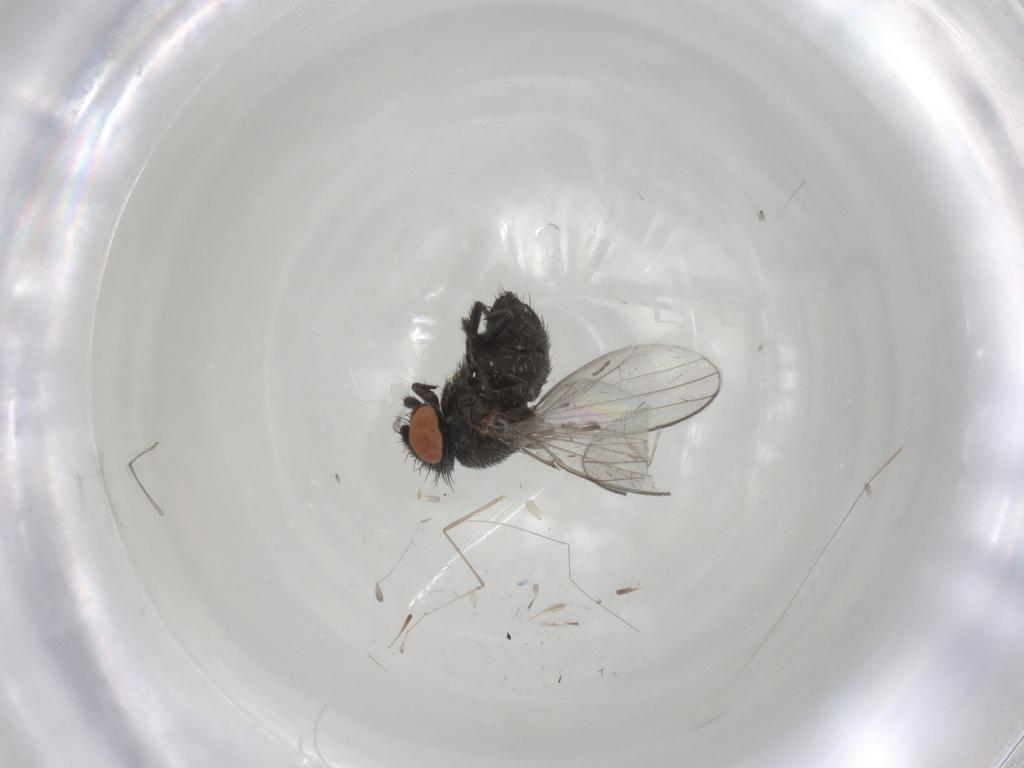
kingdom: Animalia
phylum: Arthropoda
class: Insecta
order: Diptera
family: Milichiidae
